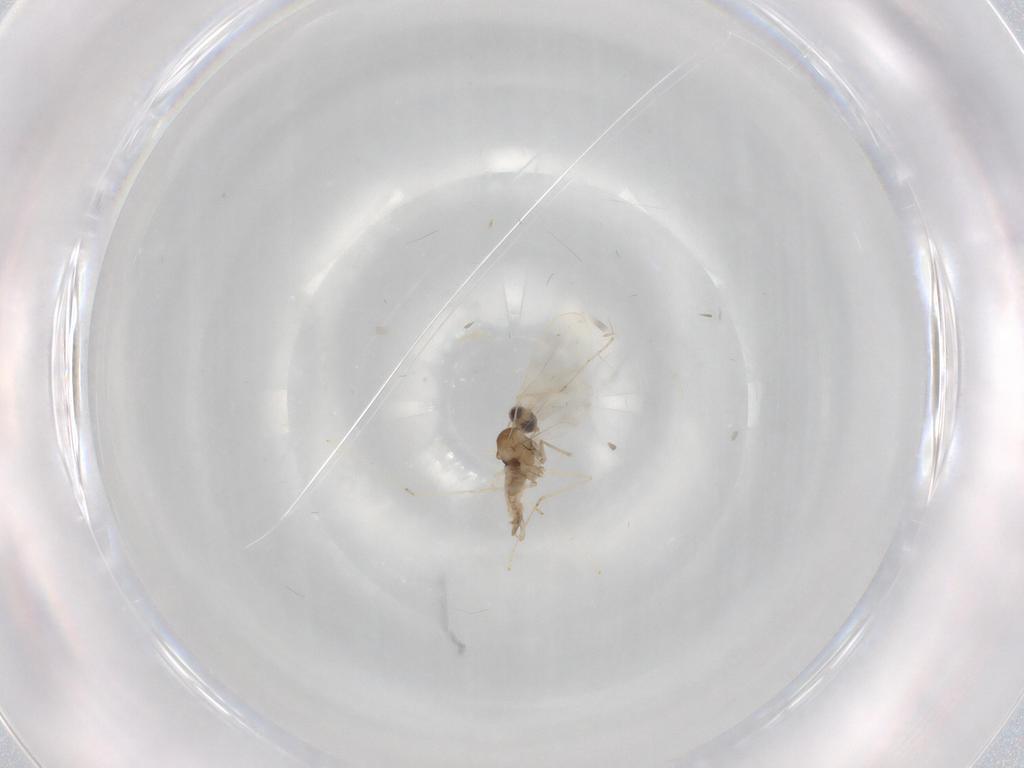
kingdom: Animalia
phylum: Arthropoda
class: Insecta
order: Diptera
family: Cecidomyiidae
